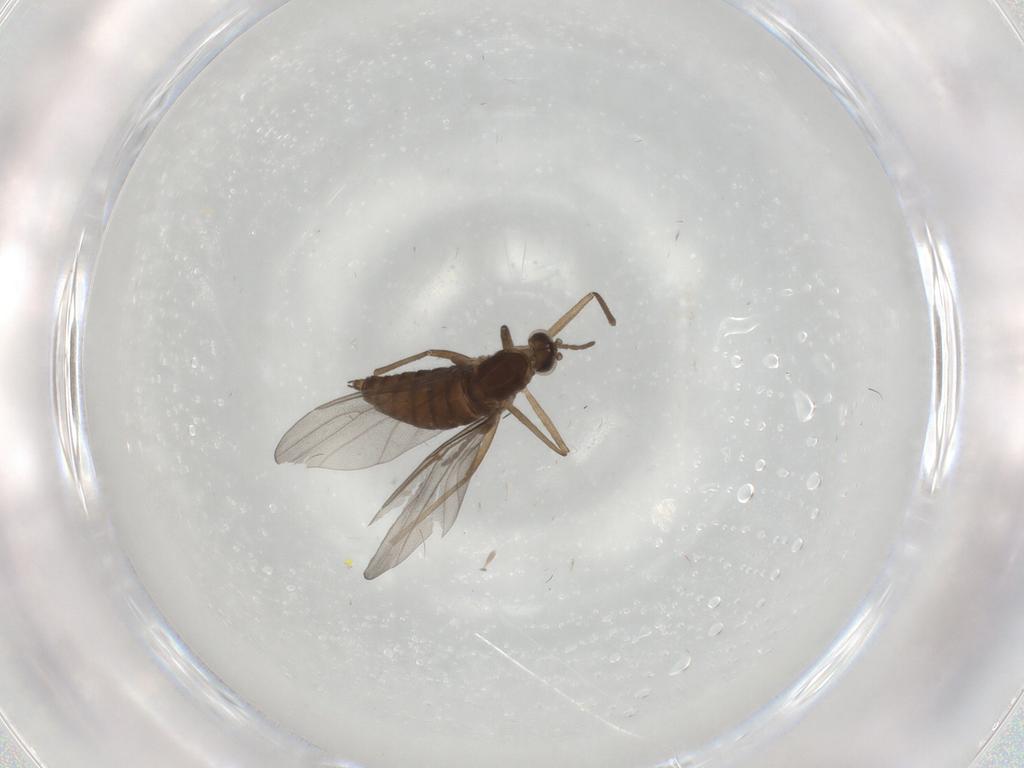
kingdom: Animalia
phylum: Arthropoda
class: Insecta
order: Diptera
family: Cecidomyiidae
